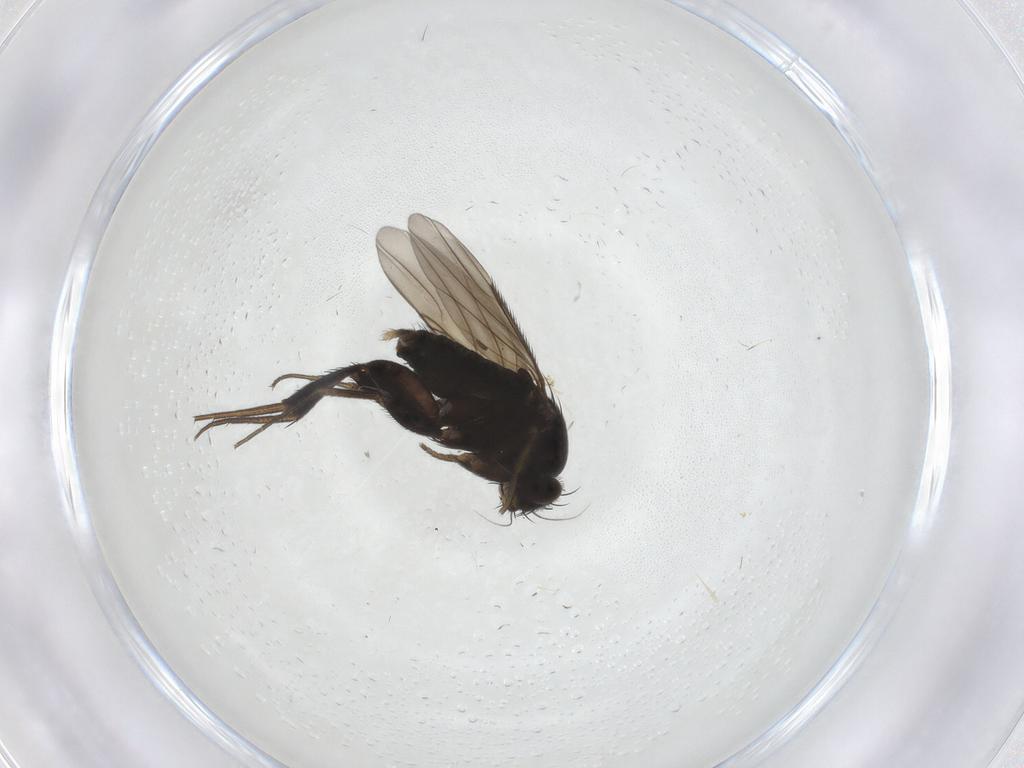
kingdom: Animalia
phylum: Arthropoda
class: Insecta
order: Diptera
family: Phoridae
